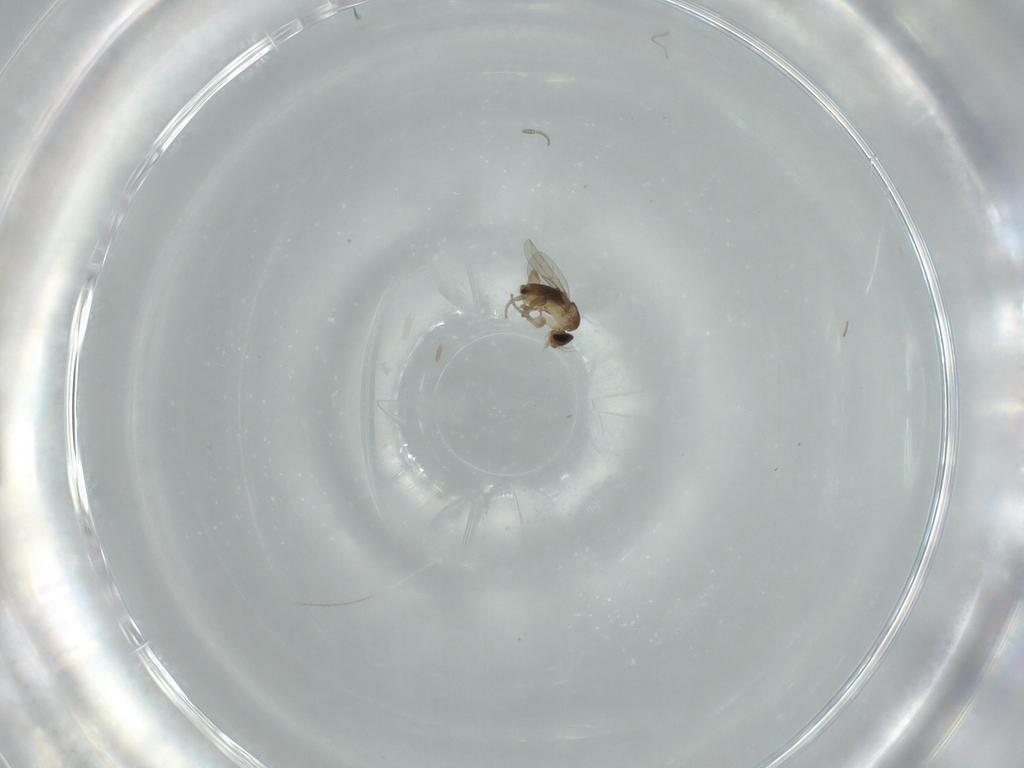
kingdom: Animalia
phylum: Arthropoda
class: Insecta
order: Diptera
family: Phoridae
